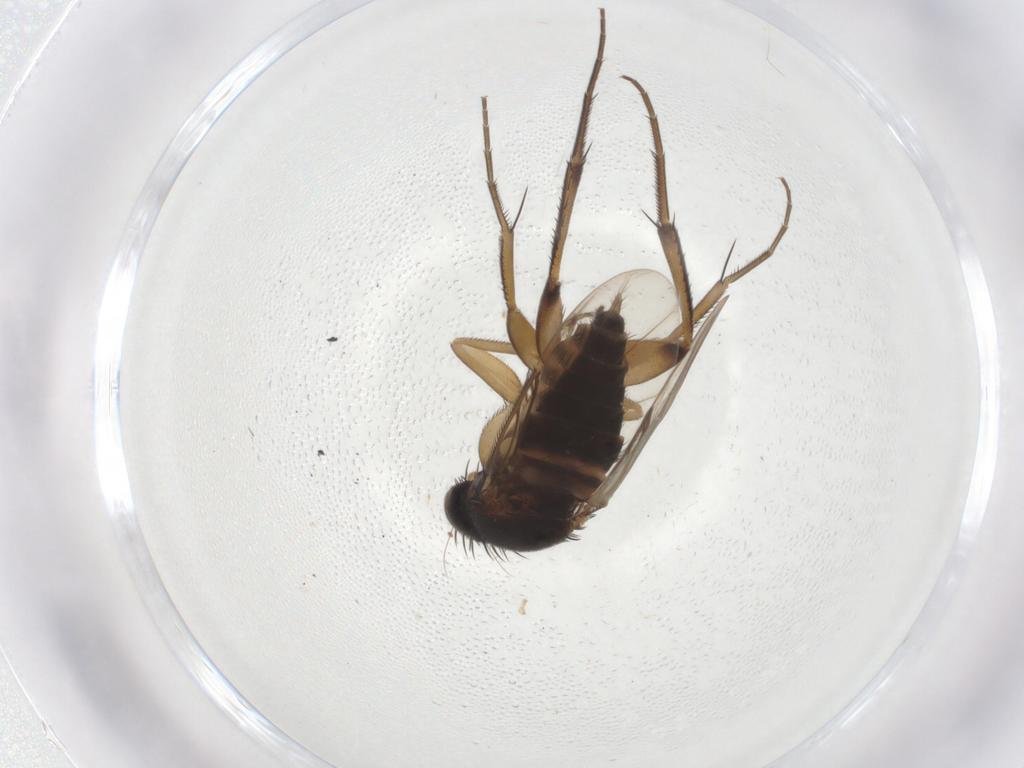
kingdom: Animalia
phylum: Arthropoda
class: Insecta
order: Diptera
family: Phoridae
